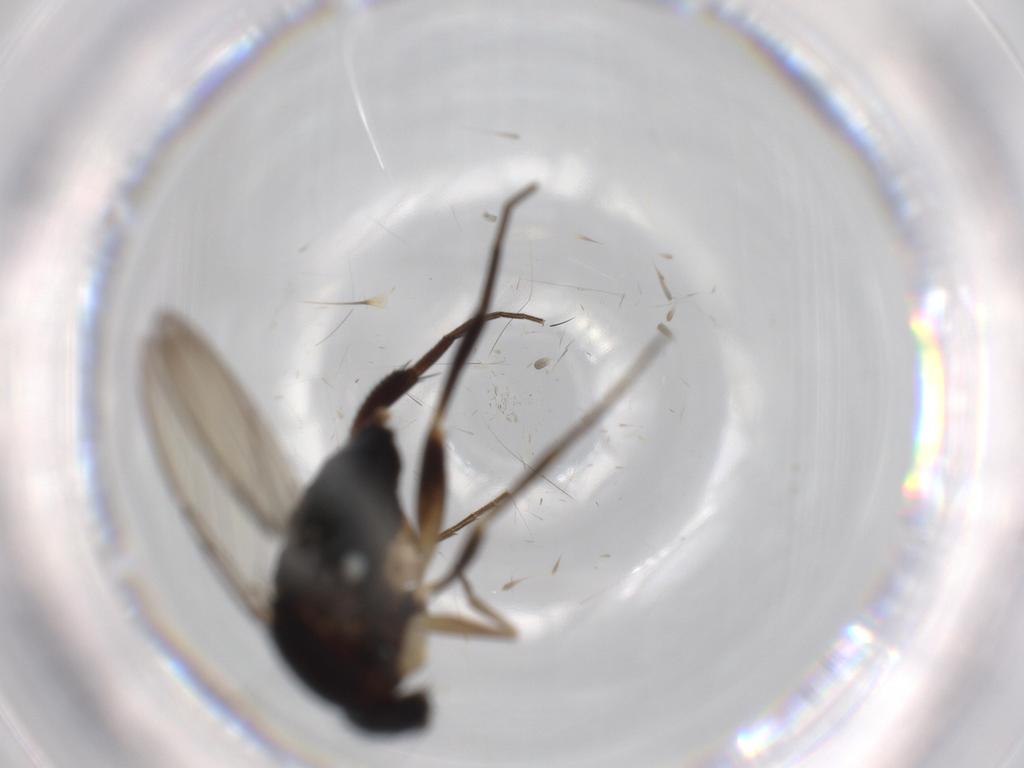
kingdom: Animalia
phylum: Arthropoda
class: Insecta
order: Diptera
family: Phoridae
